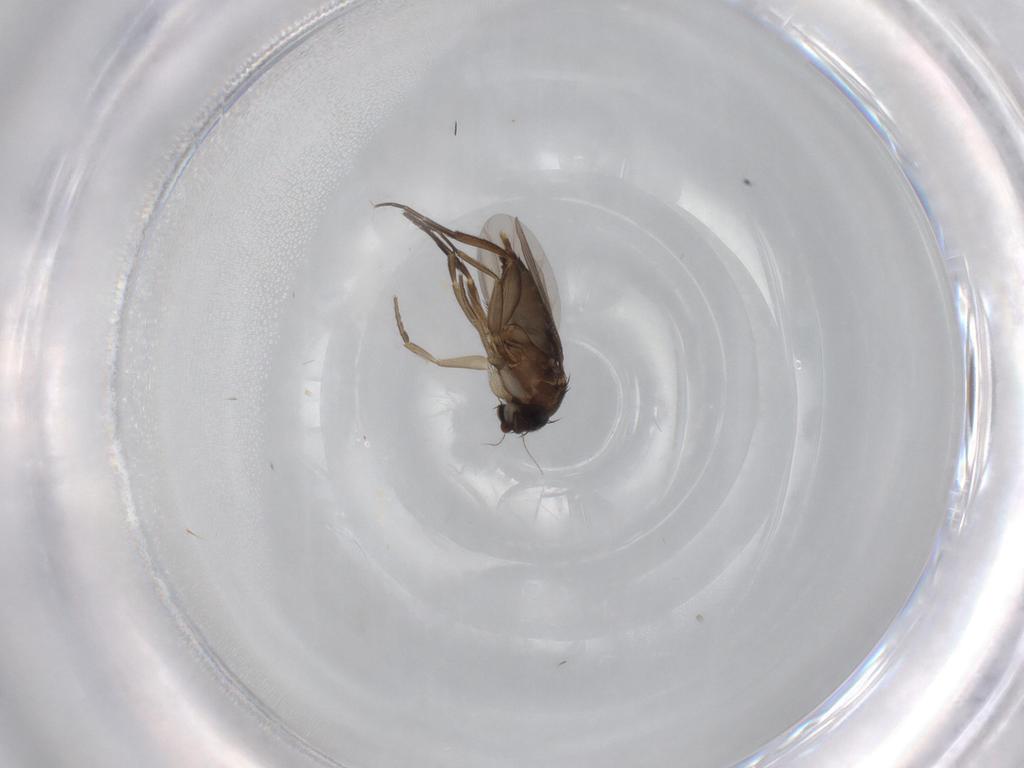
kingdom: Animalia
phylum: Arthropoda
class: Insecta
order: Diptera
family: Phoridae
